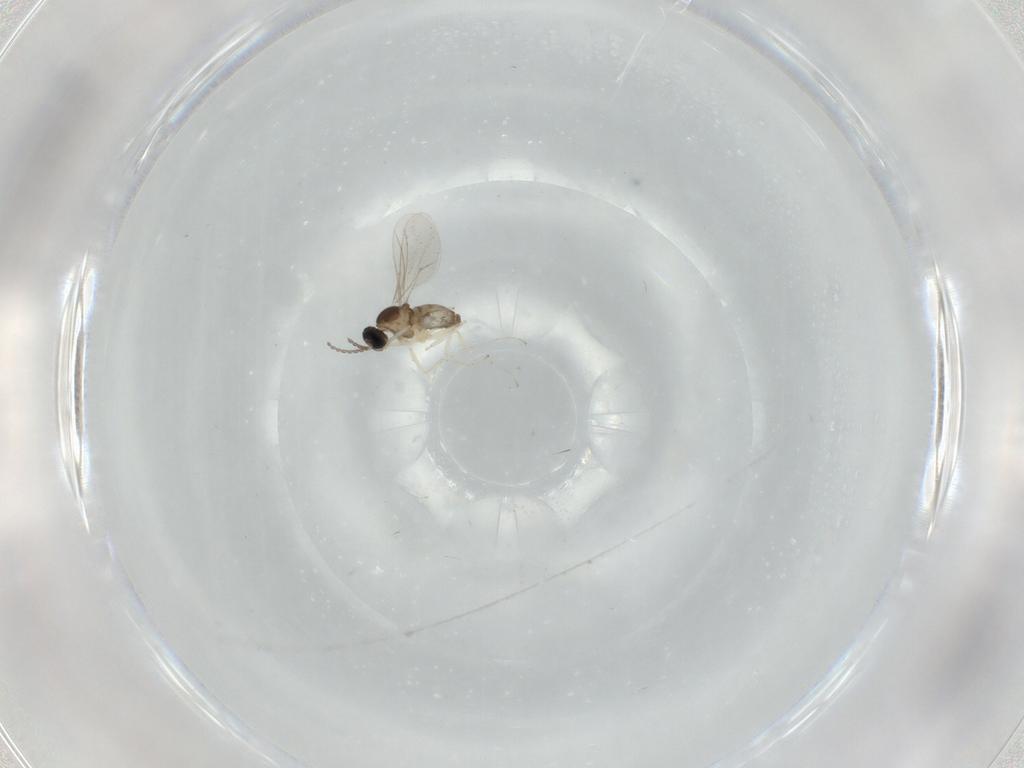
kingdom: Animalia
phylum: Arthropoda
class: Insecta
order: Diptera
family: Cecidomyiidae
